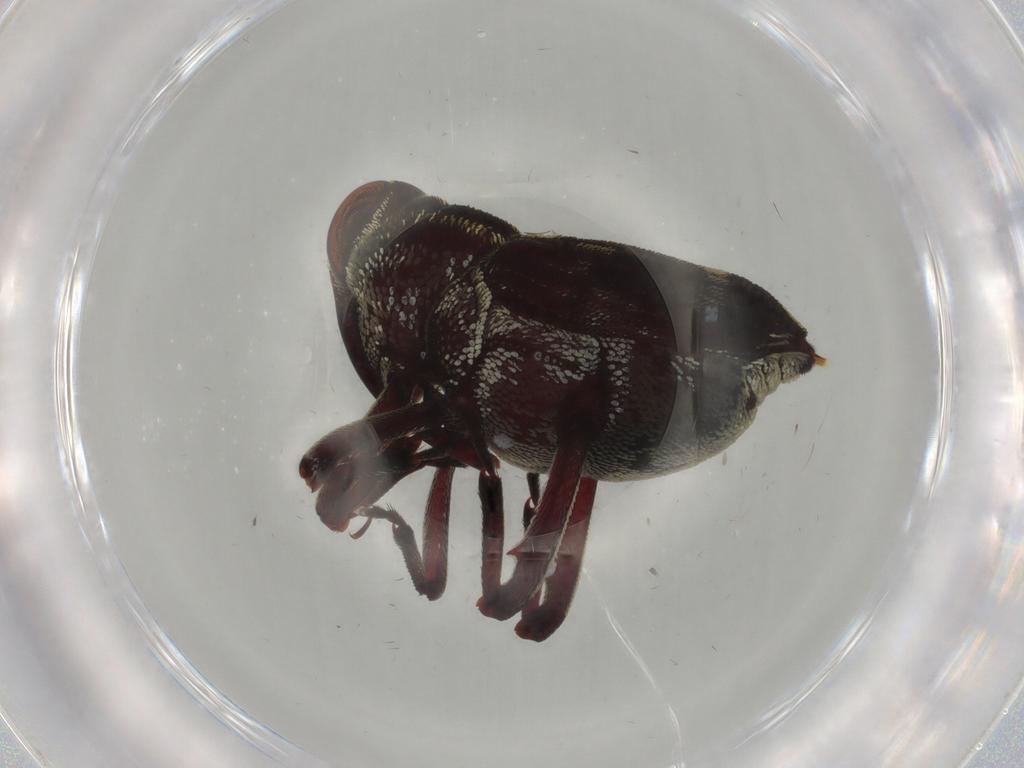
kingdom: Animalia
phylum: Arthropoda
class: Insecta
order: Coleoptera
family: Curculionidae
